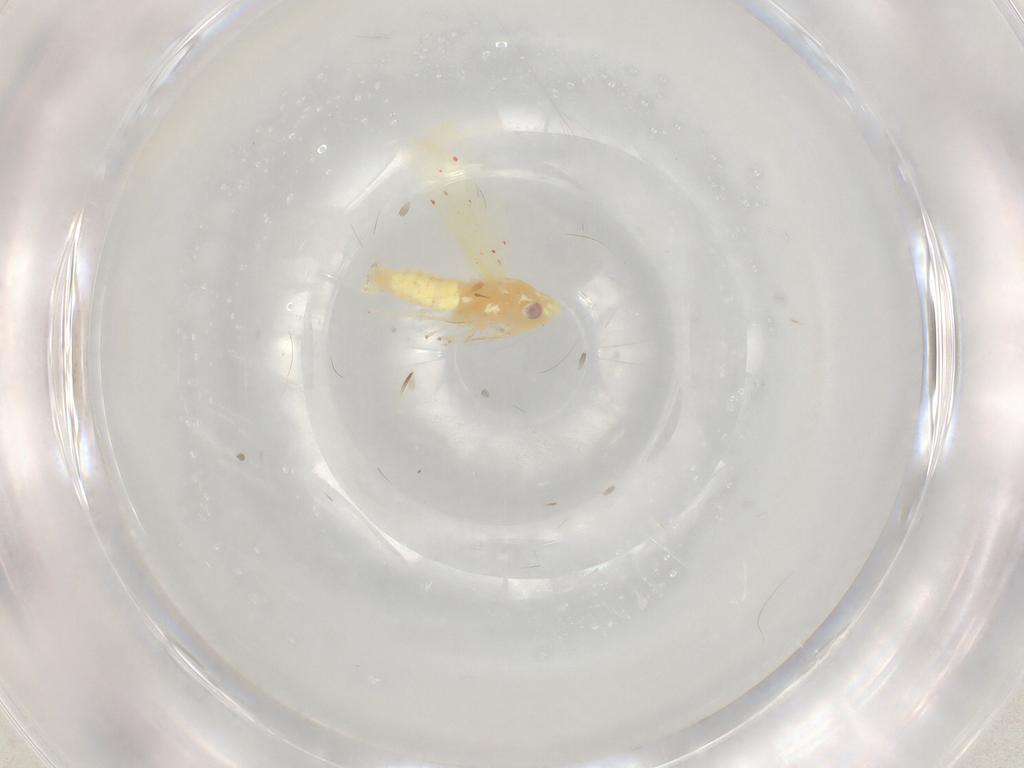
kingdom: Animalia
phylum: Arthropoda
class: Insecta
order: Hemiptera
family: Cicadellidae
